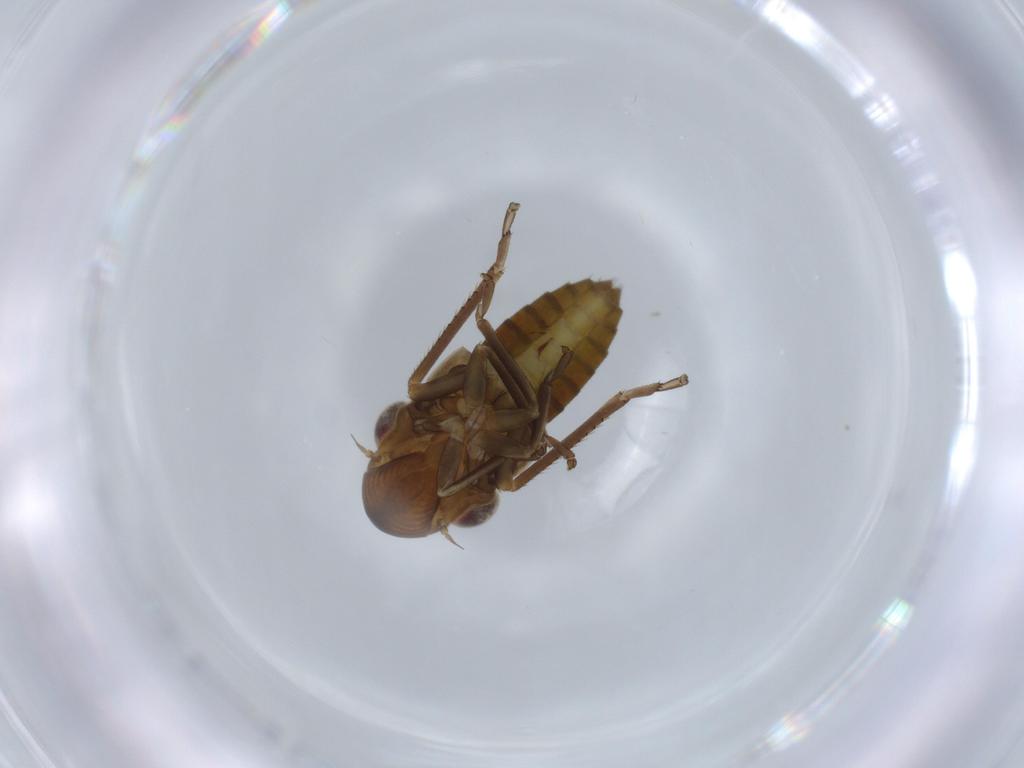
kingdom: Animalia
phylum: Arthropoda
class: Insecta
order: Hemiptera
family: Cicadellidae
